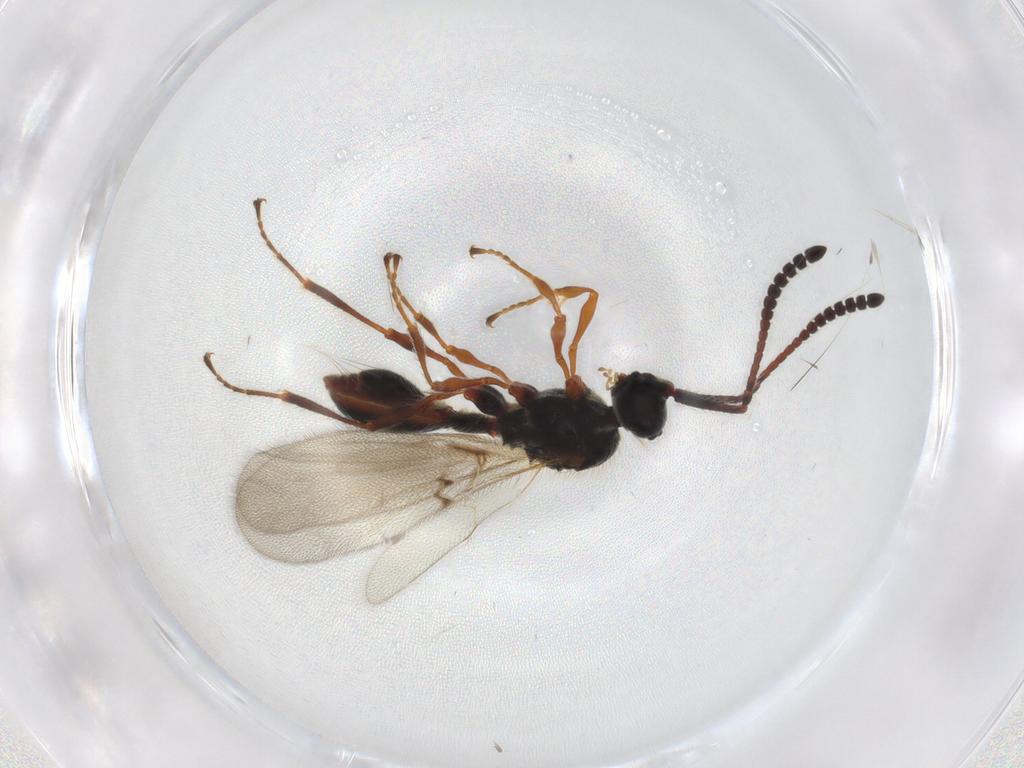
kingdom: Animalia
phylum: Arthropoda
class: Insecta
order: Hymenoptera
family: Diapriidae
